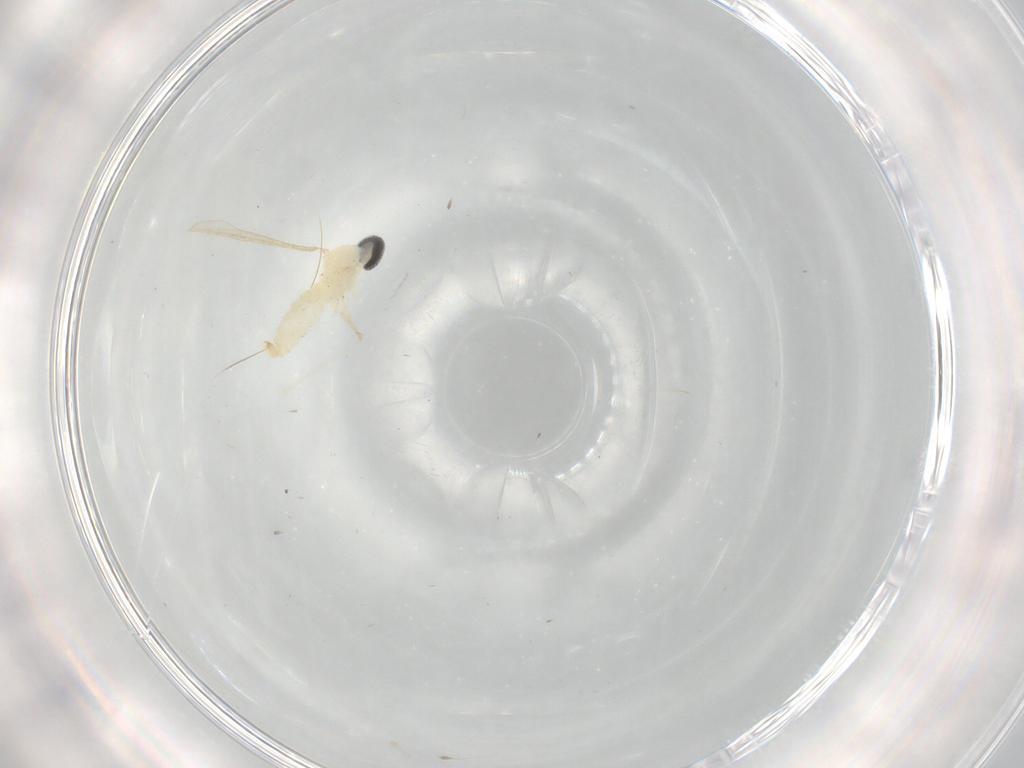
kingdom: Animalia
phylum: Arthropoda
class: Insecta
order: Diptera
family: Cecidomyiidae
